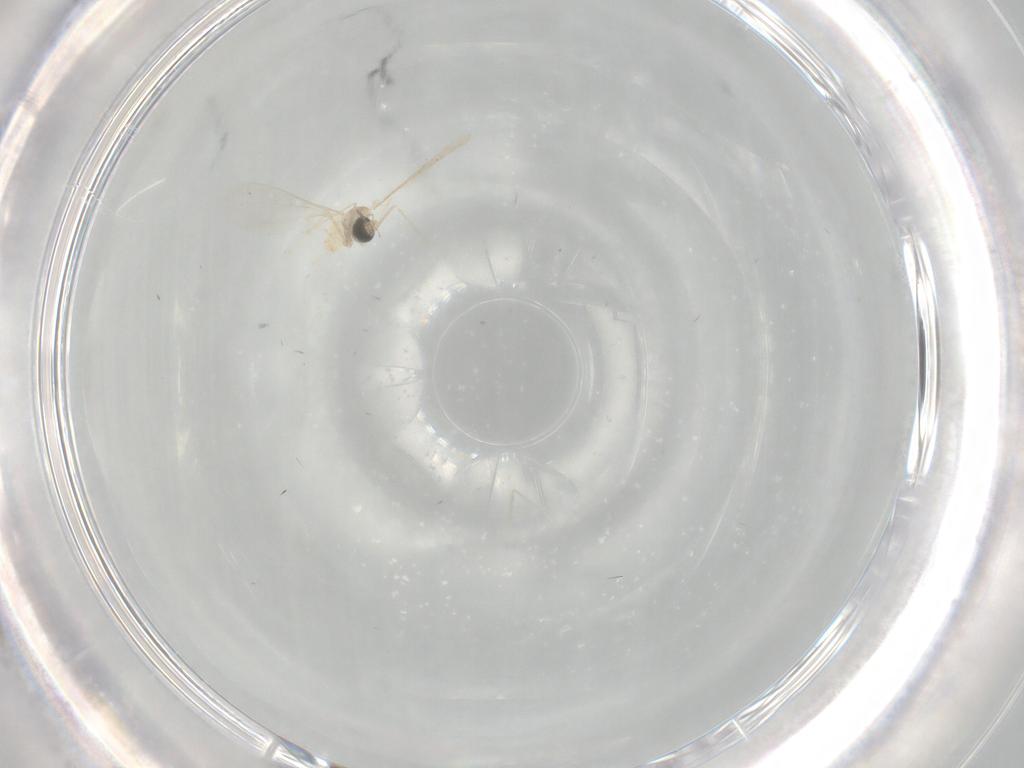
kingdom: Animalia
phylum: Arthropoda
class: Insecta
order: Diptera
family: Cecidomyiidae
